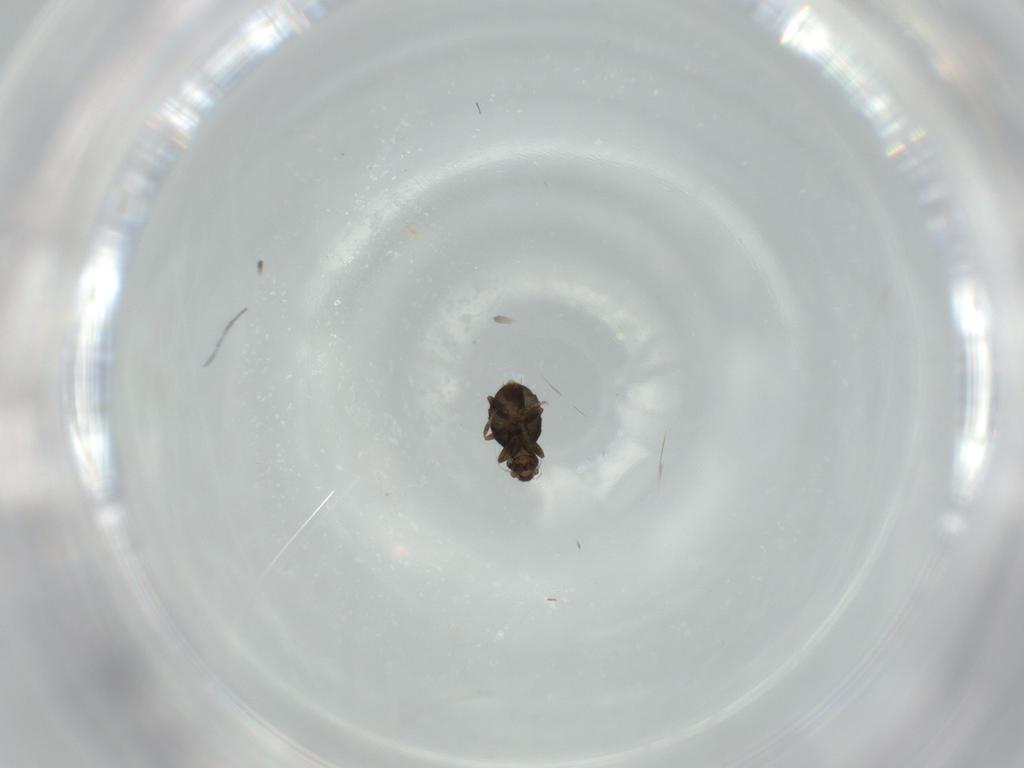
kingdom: Animalia
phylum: Arthropoda
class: Insecta
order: Diptera
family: Phoridae
